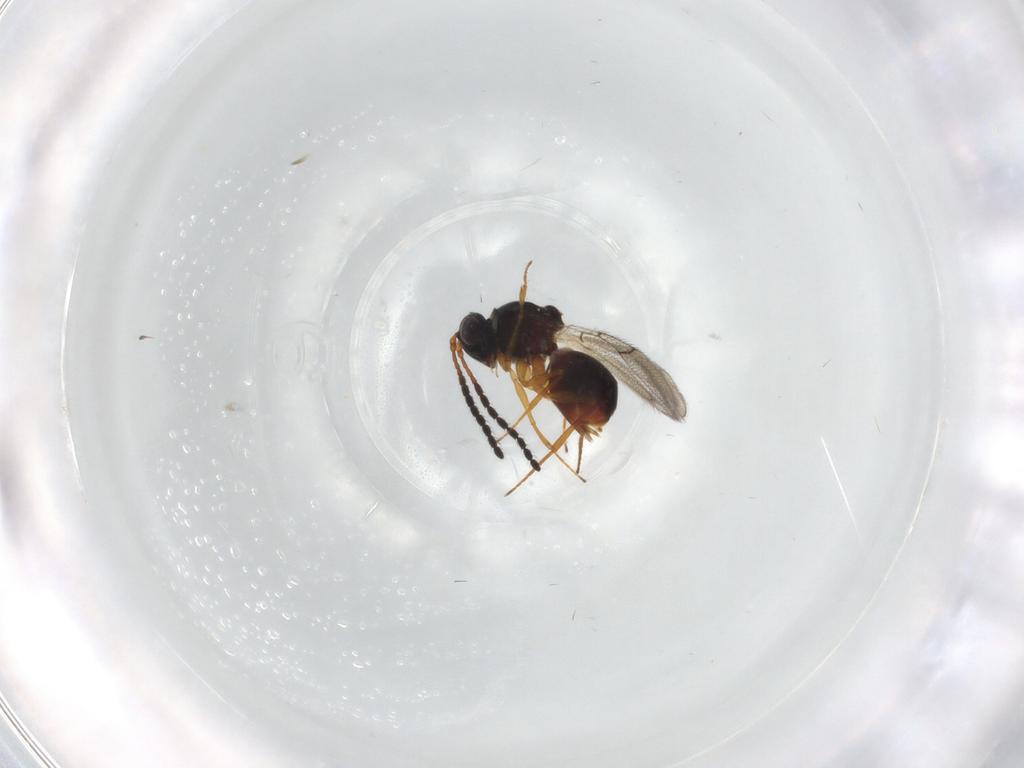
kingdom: Animalia
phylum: Arthropoda
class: Insecta
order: Hymenoptera
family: Figitidae
